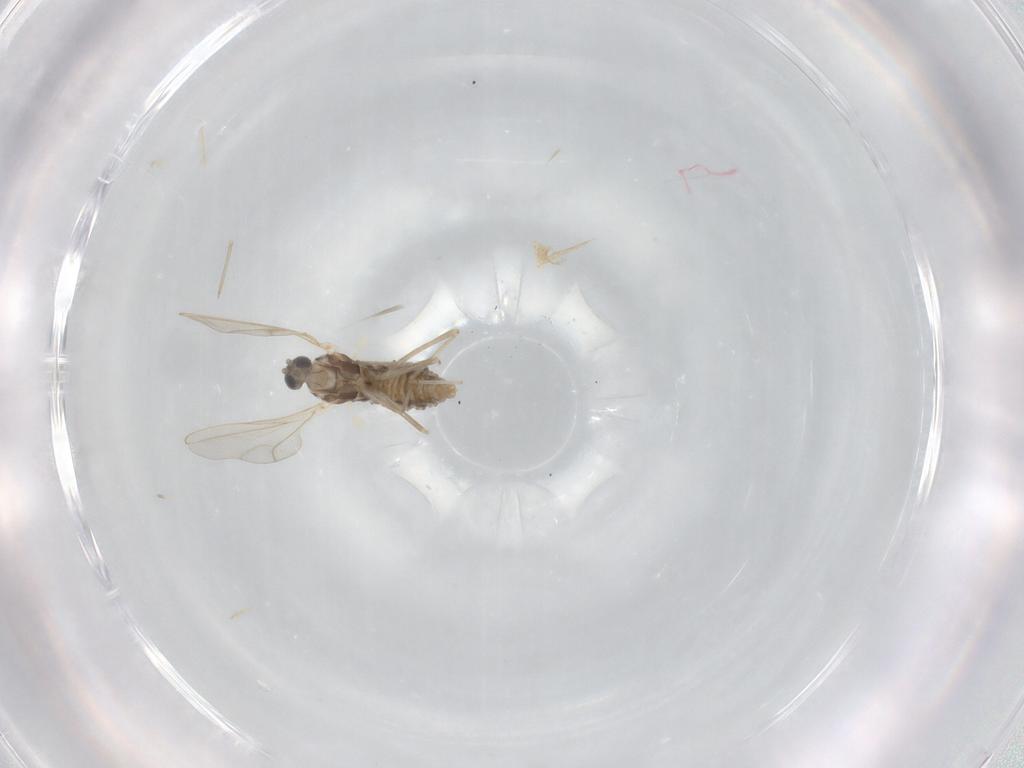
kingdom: Animalia
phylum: Arthropoda
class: Insecta
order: Diptera
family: Cecidomyiidae
